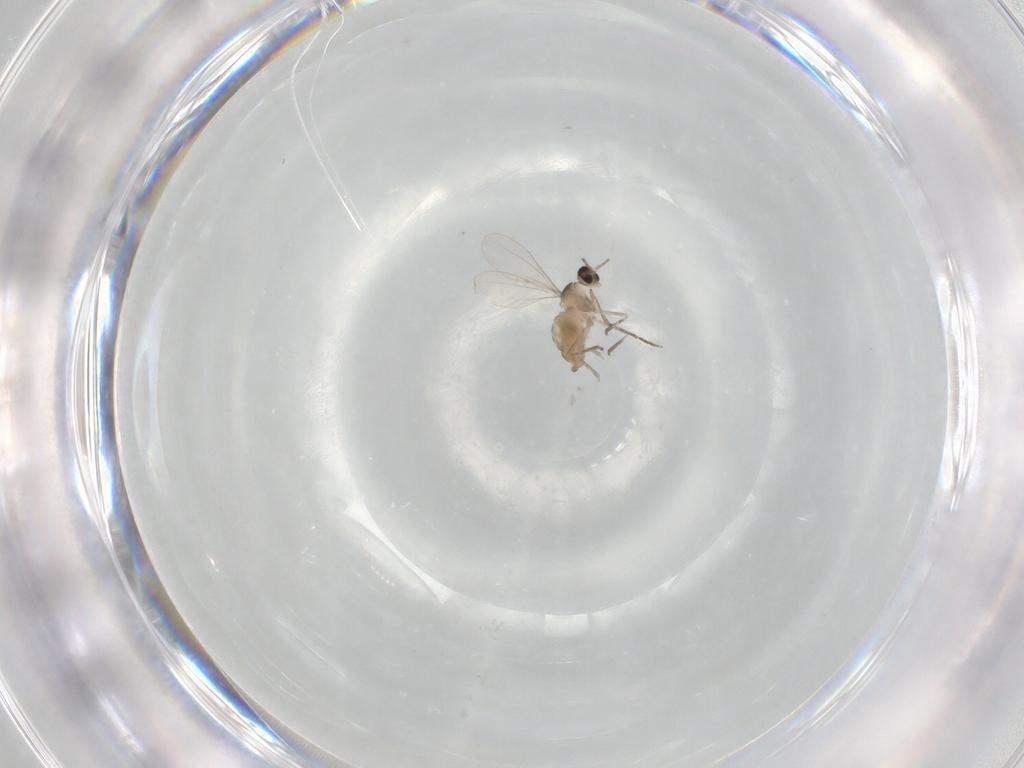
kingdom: Animalia
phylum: Arthropoda
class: Insecta
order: Diptera
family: Cecidomyiidae
